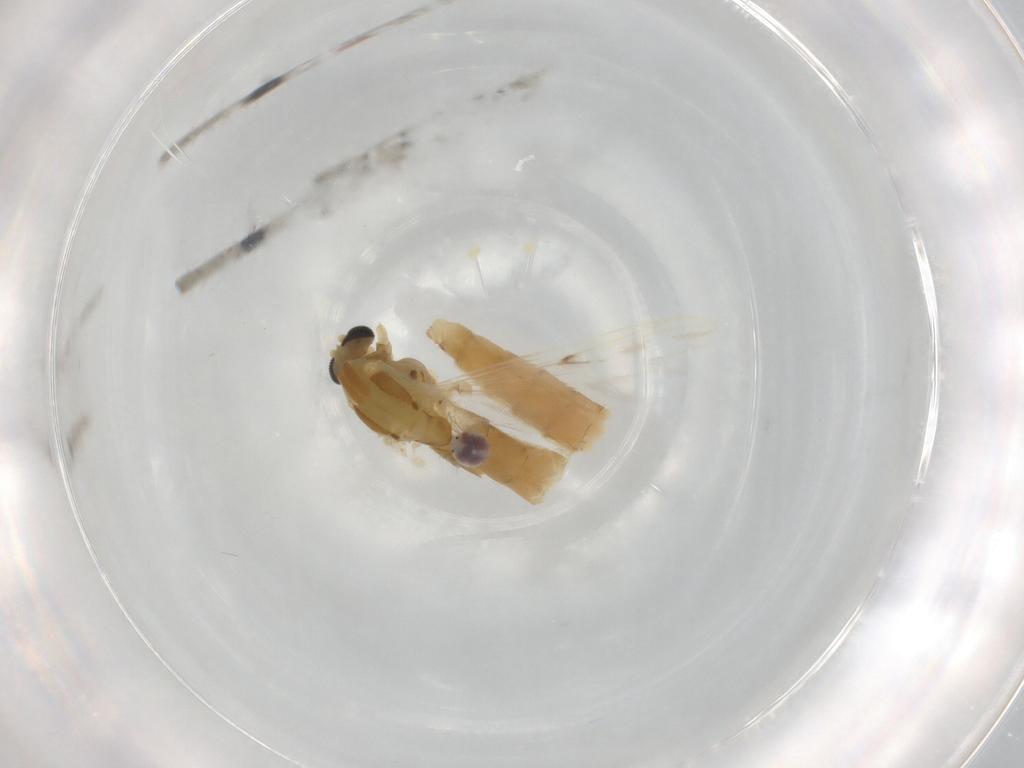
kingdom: Animalia
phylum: Arthropoda
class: Insecta
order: Diptera
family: Chironomidae
